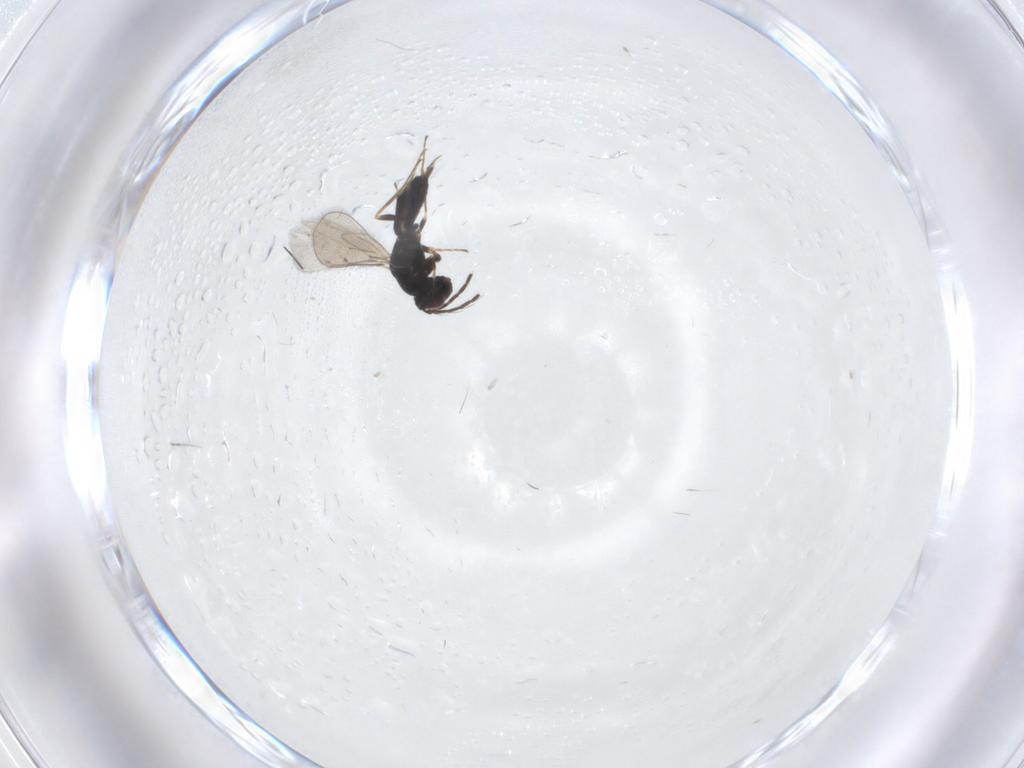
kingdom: Animalia
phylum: Arthropoda
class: Insecta
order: Hymenoptera
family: Eulophidae
